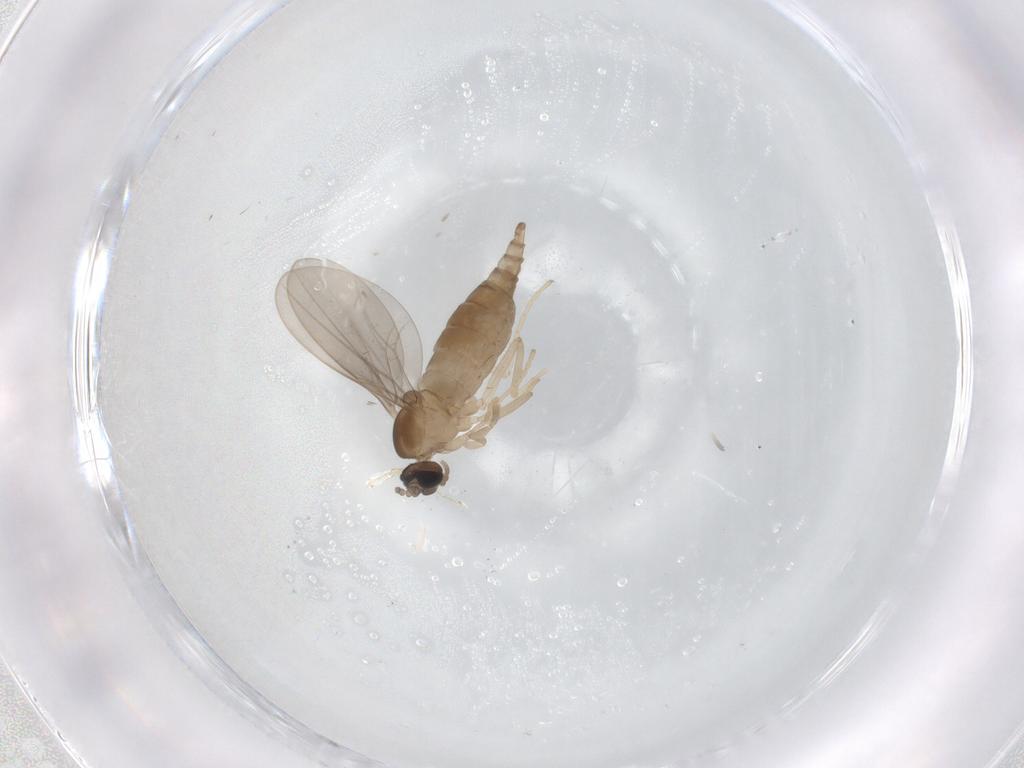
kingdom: Animalia
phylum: Arthropoda
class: Insecta
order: Diptera
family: Cecidomyiidae
